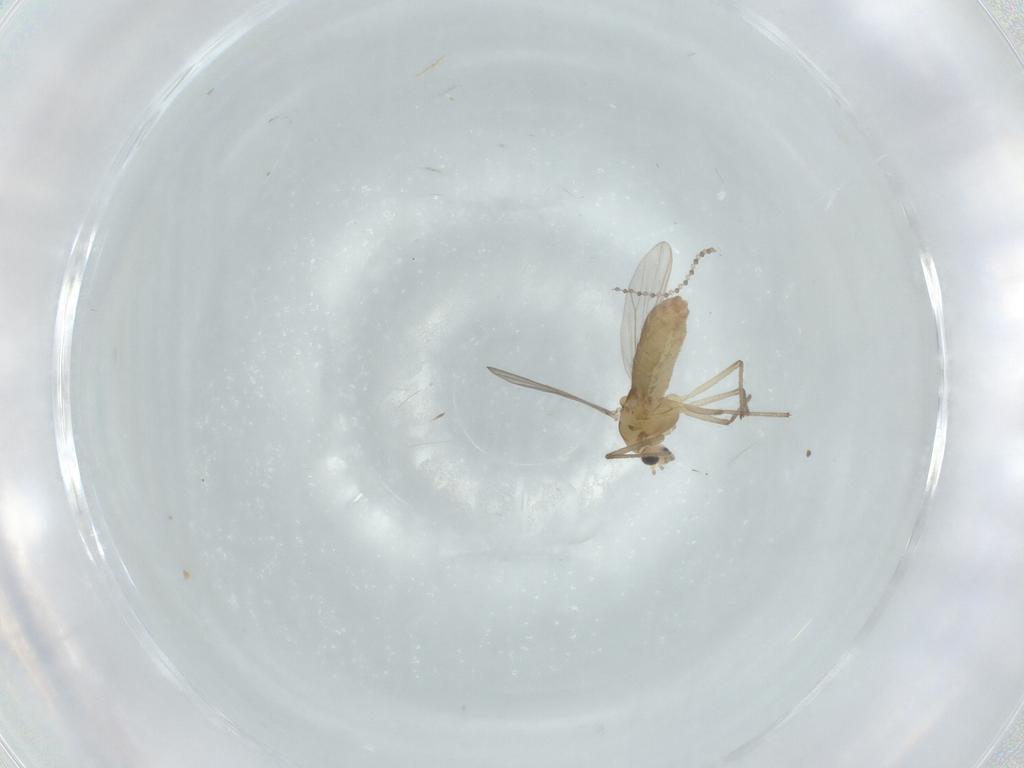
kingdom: Animalia
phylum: Arthropoda
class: Insecta
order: Diptera
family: Chironomidae
